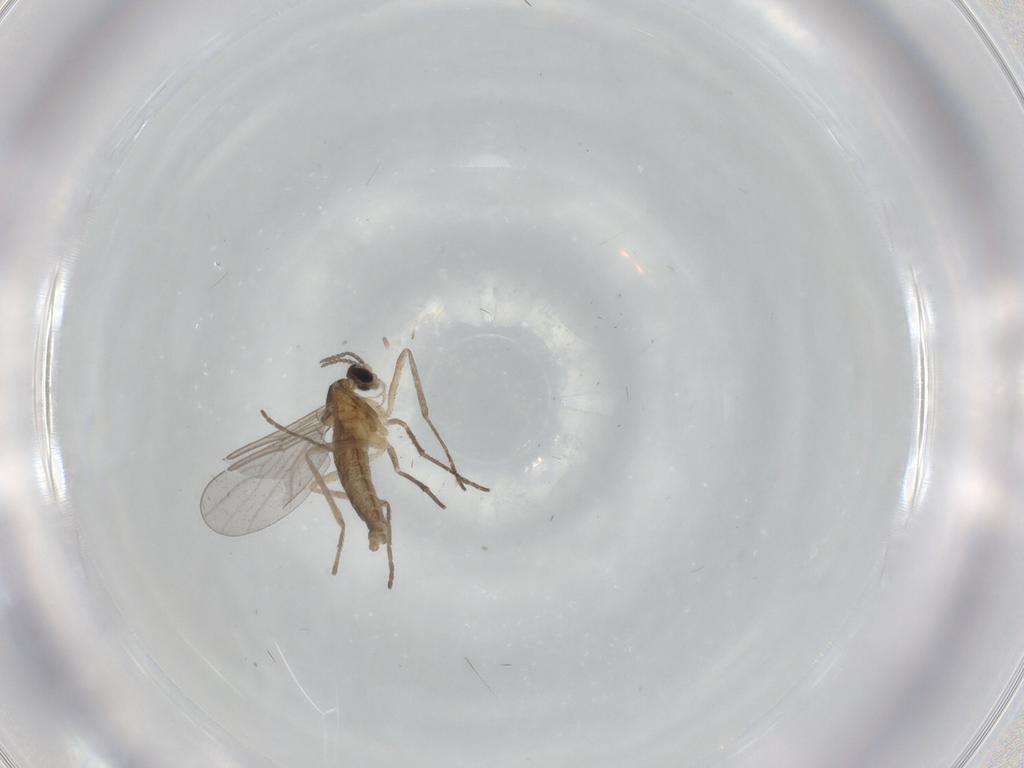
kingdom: Animalia
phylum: Arthropoda
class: Insecta
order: Diptera
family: Cecidomyiidae
